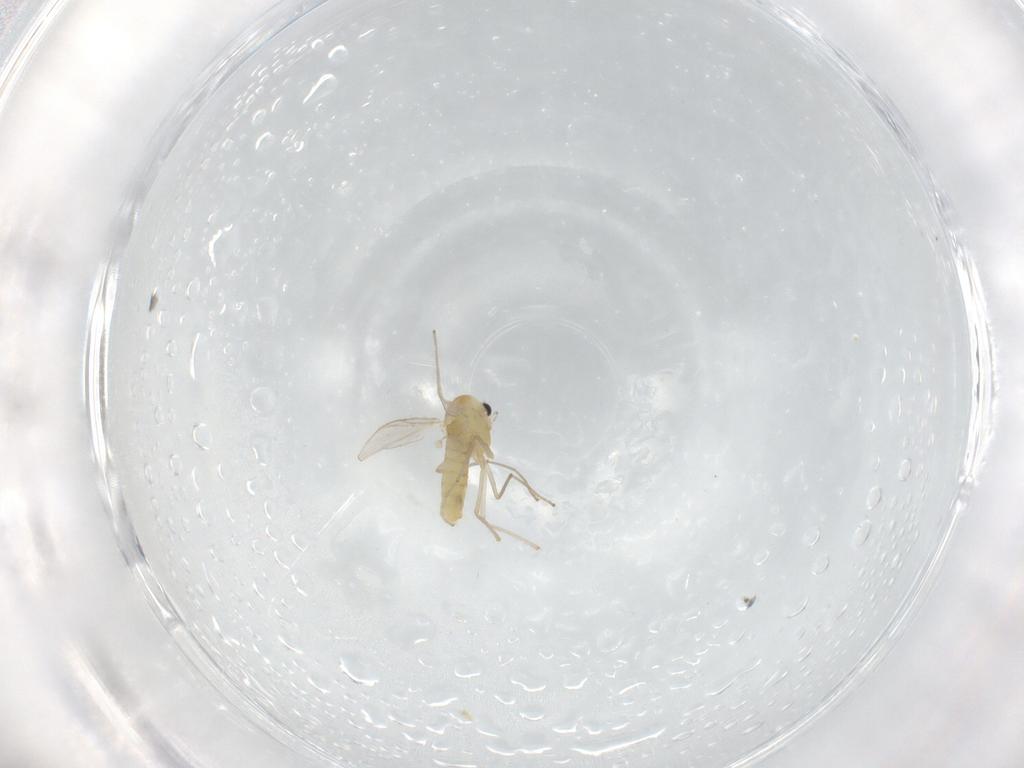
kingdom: Animalia
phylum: Arthropoda
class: Insecta
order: Diptera
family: Chironomidae
